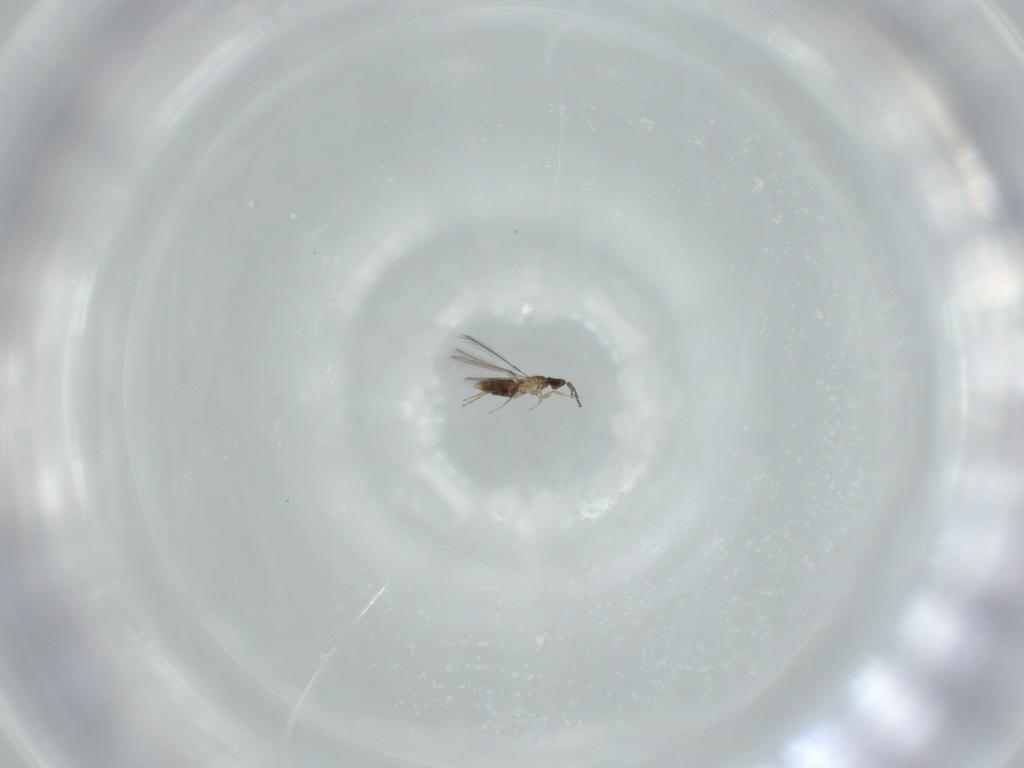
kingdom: Animalia
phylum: Arthropoda
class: Insecta
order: Hymenoptera
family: Mymaridae
